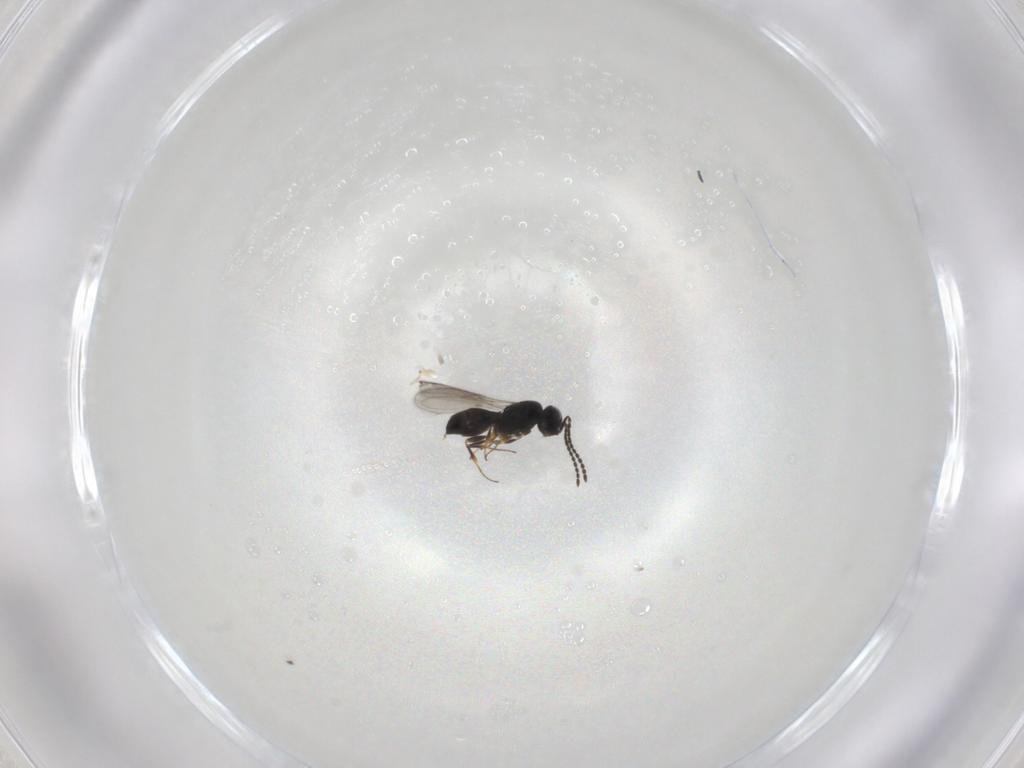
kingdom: Animalia
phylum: Arthropoda
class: Insecta
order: Hymenoptera
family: Scelionidae
